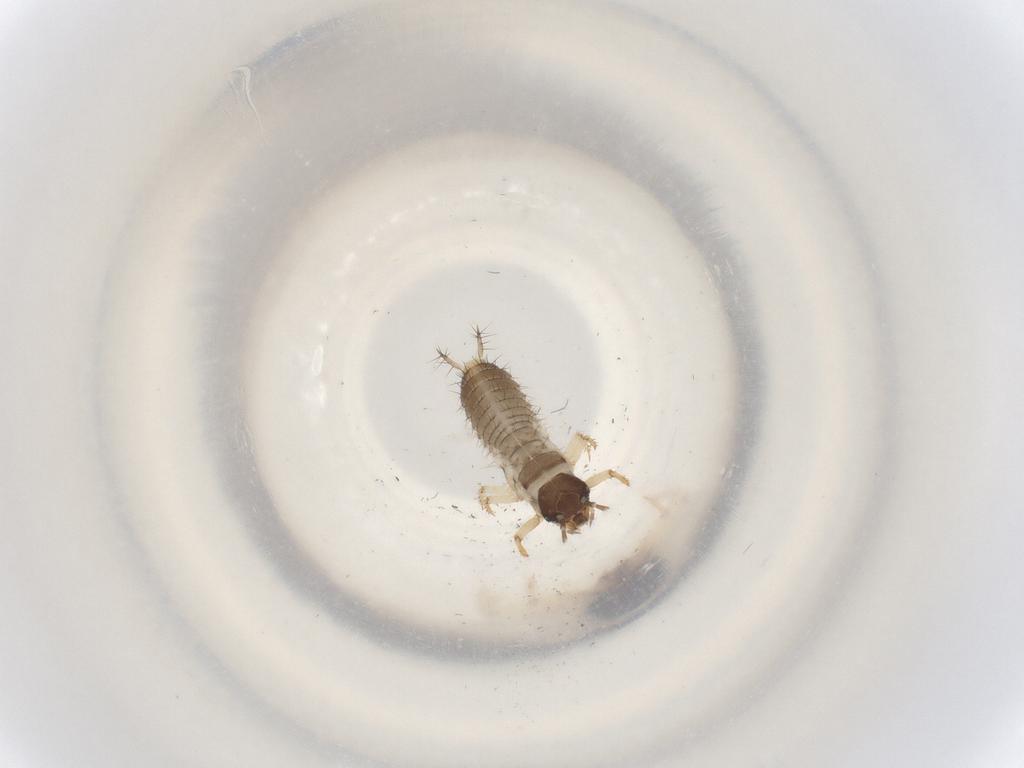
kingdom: Animalia
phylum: Arthropoda
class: Insecta
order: Coleoptera
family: Staphylinidae
